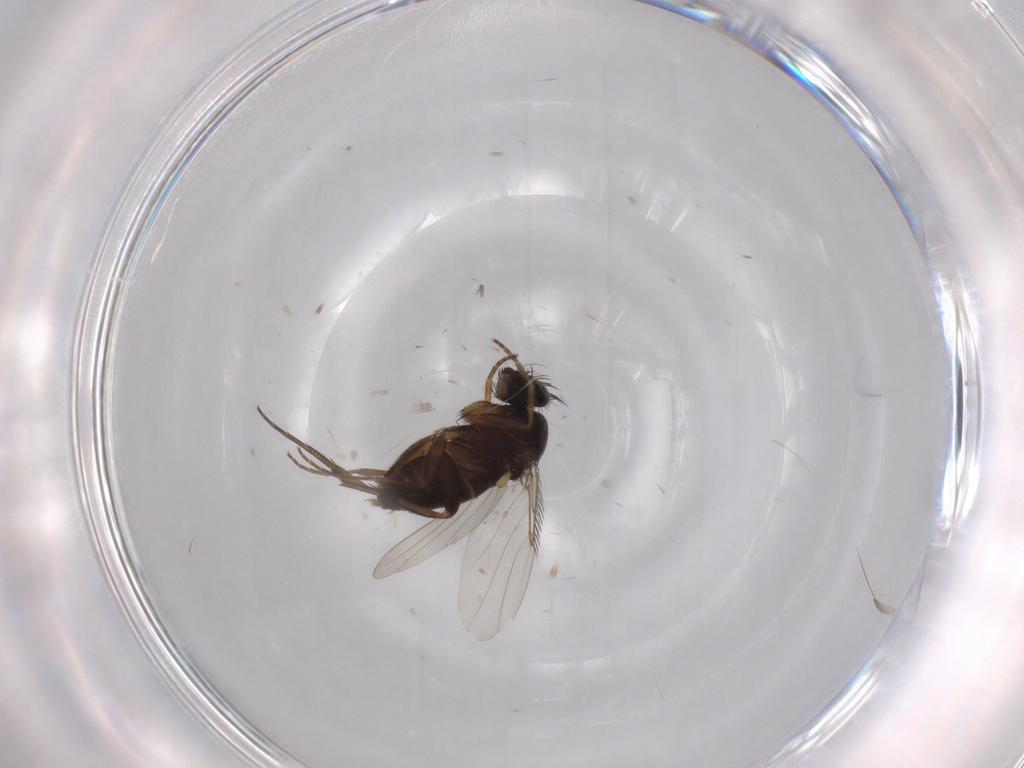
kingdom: Animalia
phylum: Arthropoda
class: Insecta
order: Diptera
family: Phoridae
